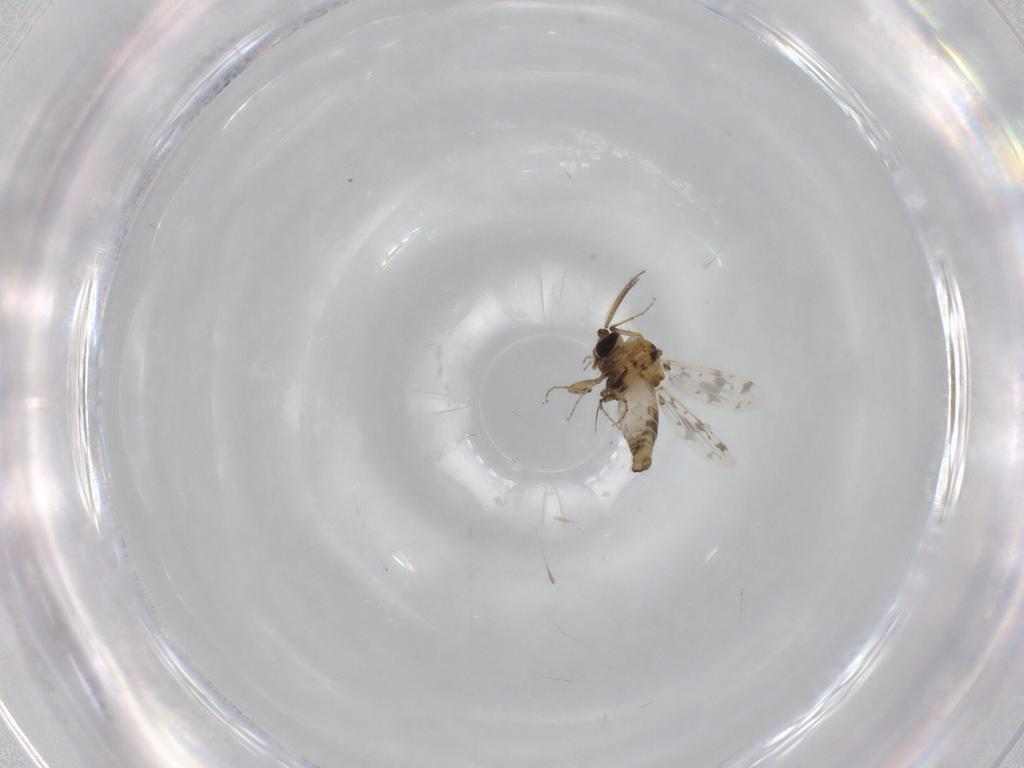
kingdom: Animalia
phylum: Arthropoda
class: Insecta
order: Diptera
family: Ceratopogonidae
